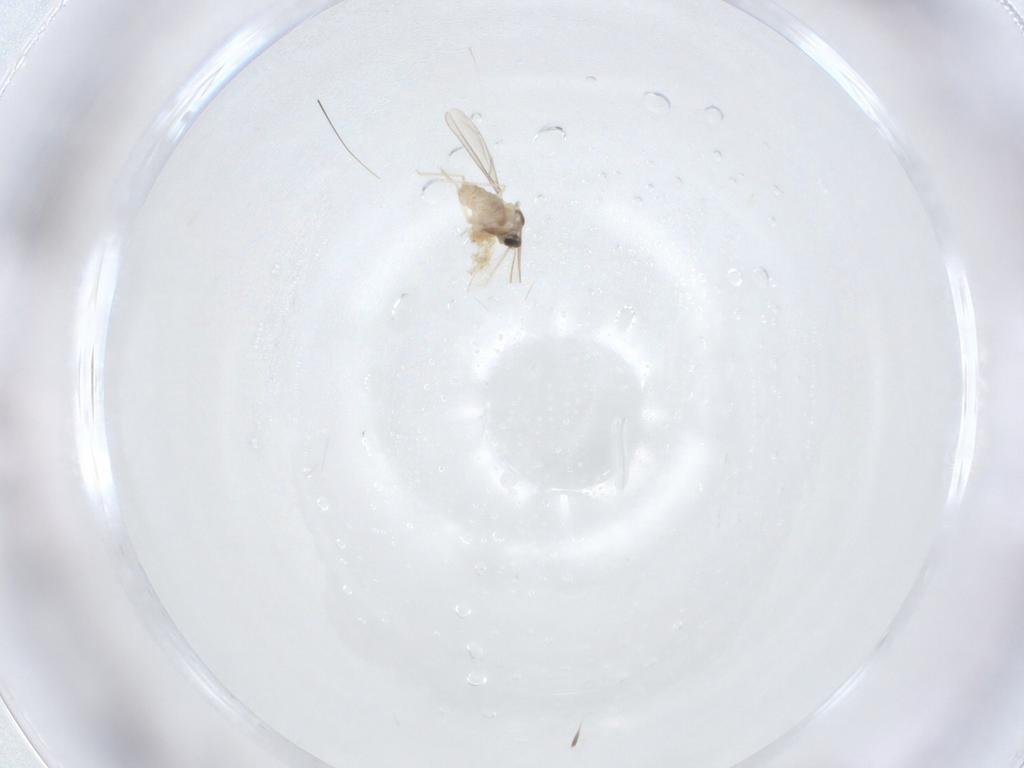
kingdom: Animalia
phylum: Arthropoda
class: Insecta
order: Diptera
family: Cecidomyiidae
